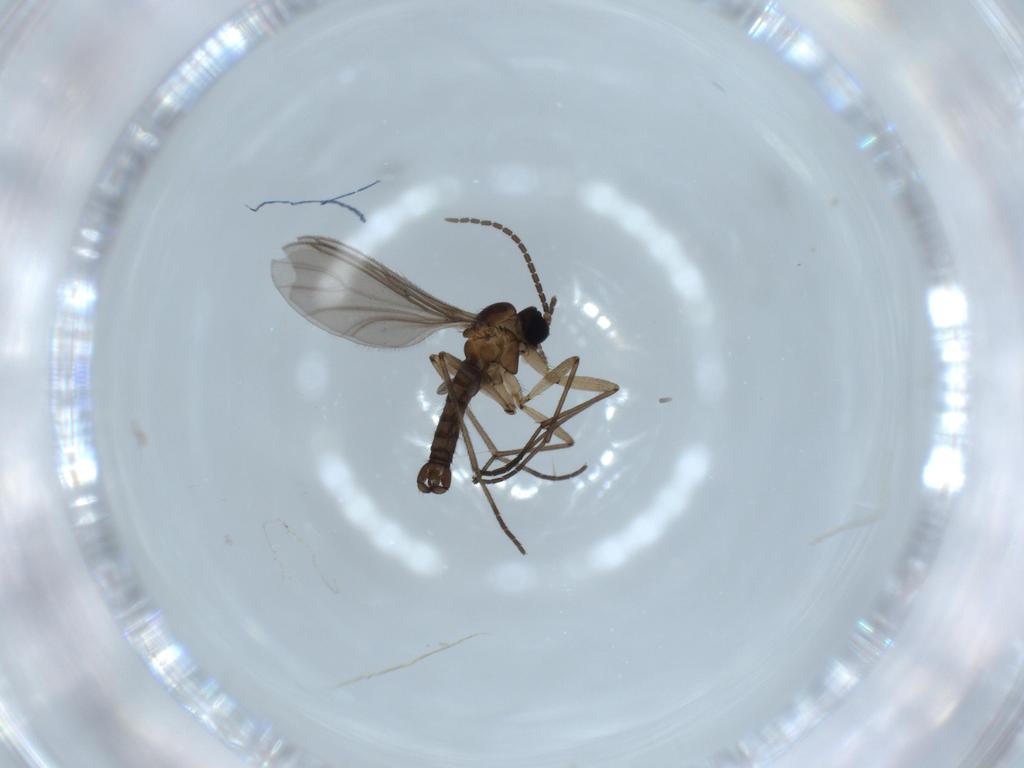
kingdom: Animalia
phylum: Arthropoda
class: Insecta
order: Diptera
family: Sciaridae
